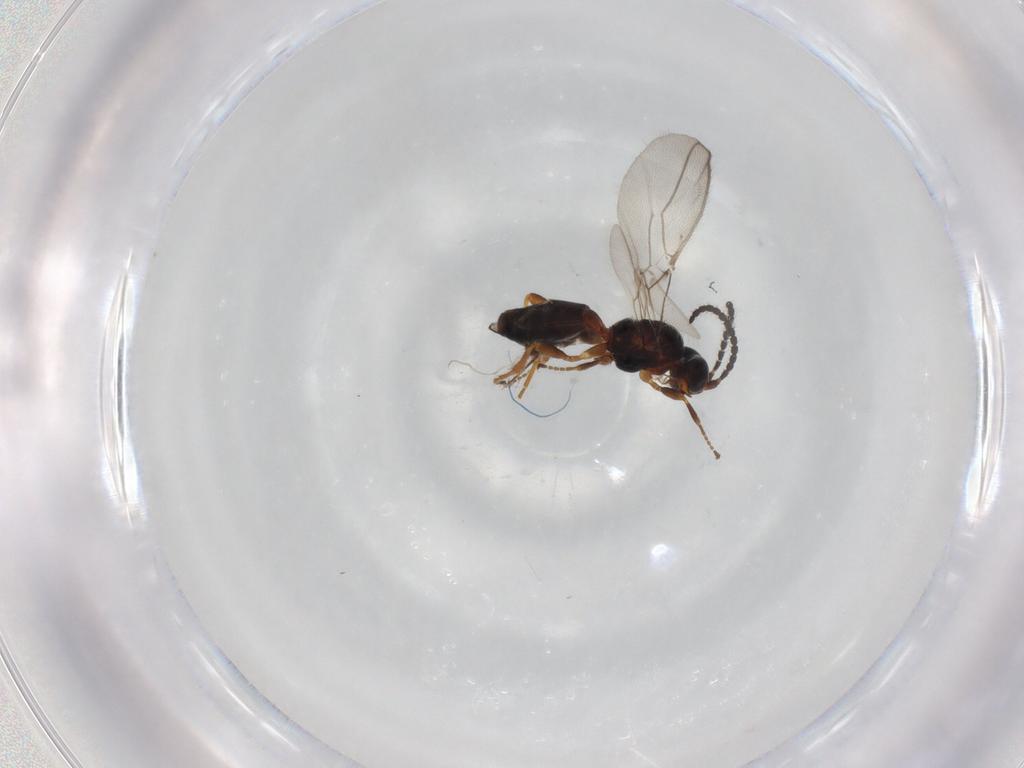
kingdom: Animalia
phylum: Arthropoda
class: Insecta
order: Hymenoptera
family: Braconidae
